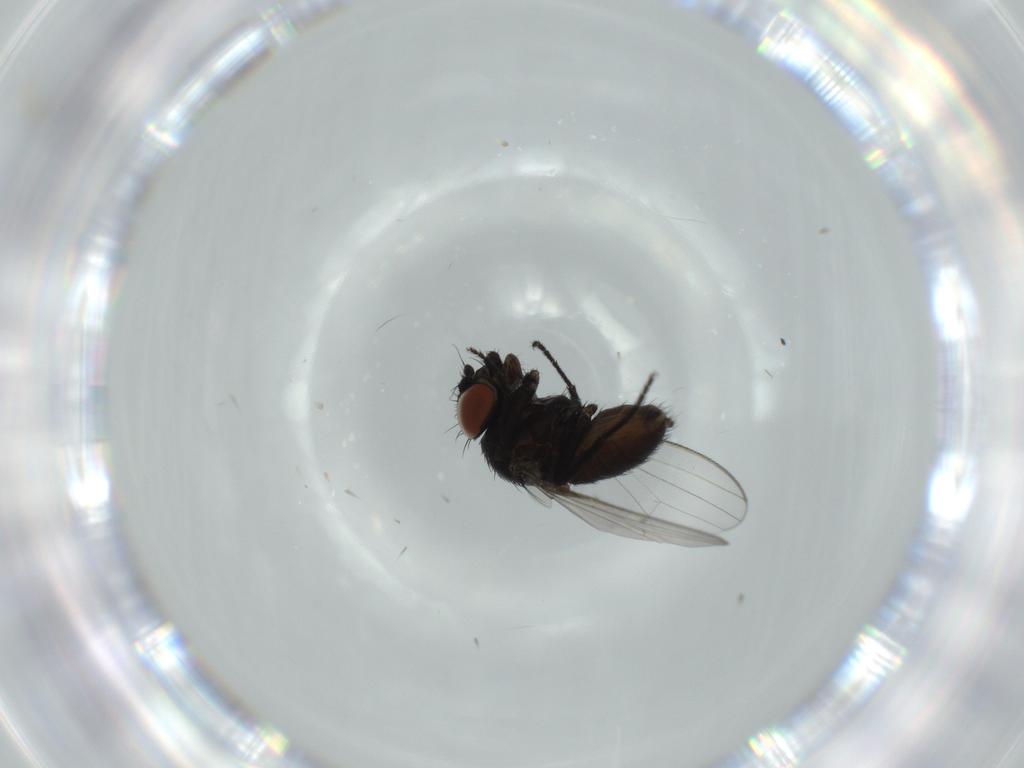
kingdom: Animalia
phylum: Arthropoda
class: Insecta
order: Diptera
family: Milichiidae
